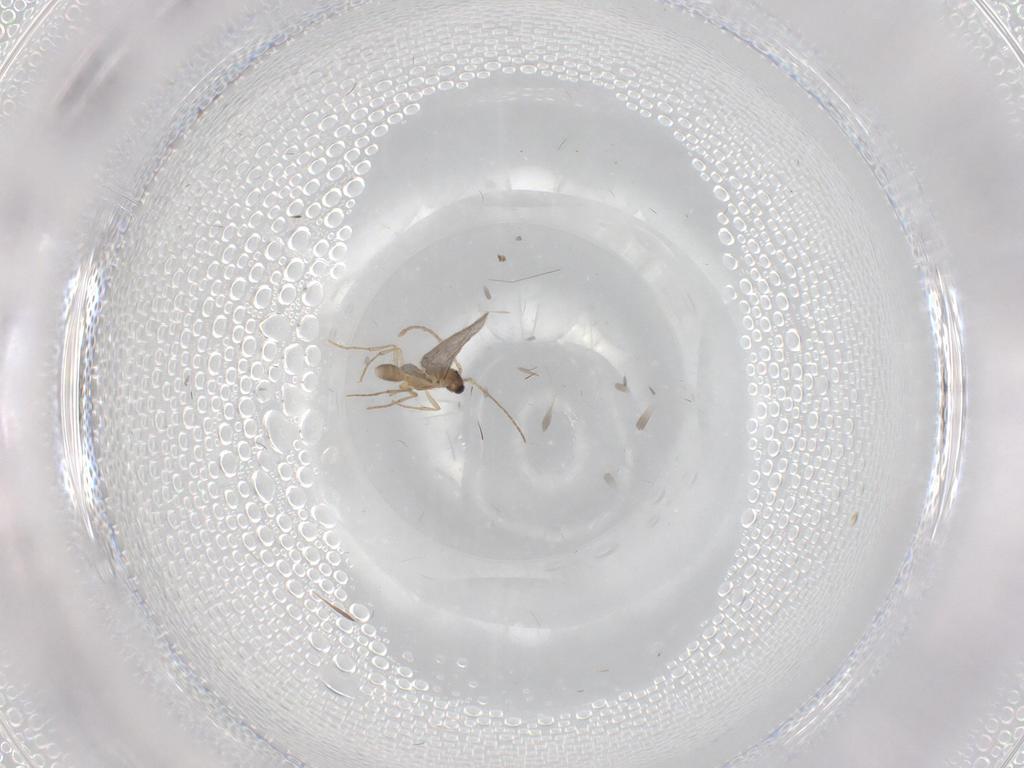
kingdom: Animalia
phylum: Arthropoda
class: Insecta
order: Hymenoptera
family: Formicidae
